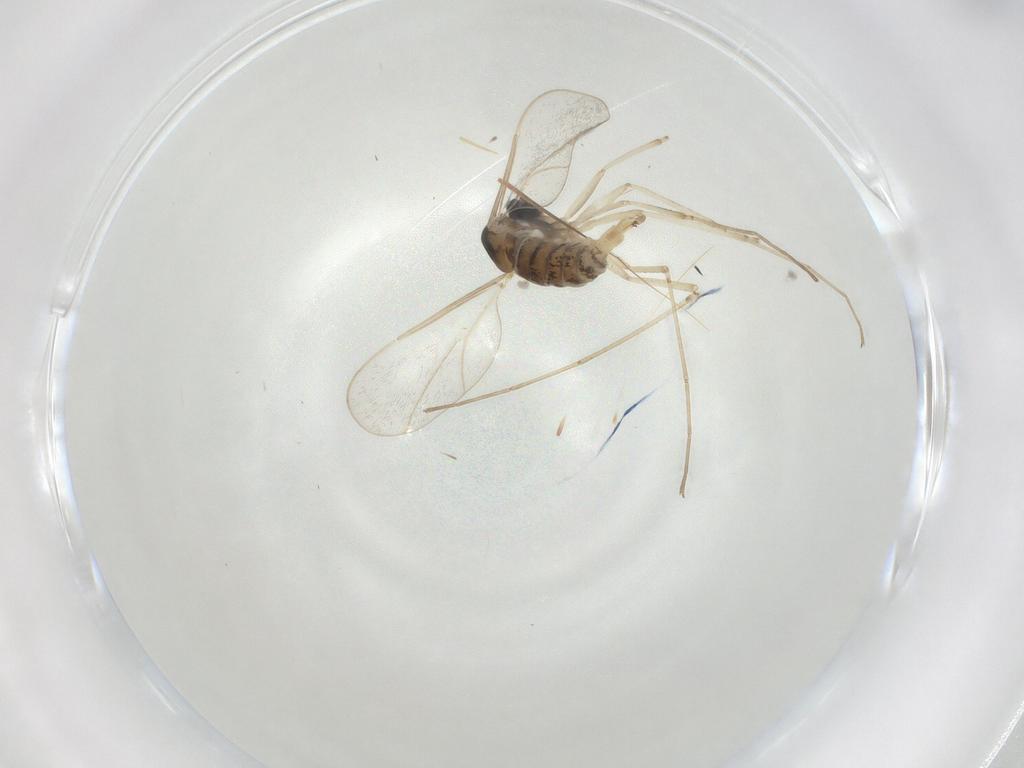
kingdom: Animalia
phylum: Arthropoda
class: Insecta
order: Diptera
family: Cecidomyiidae
